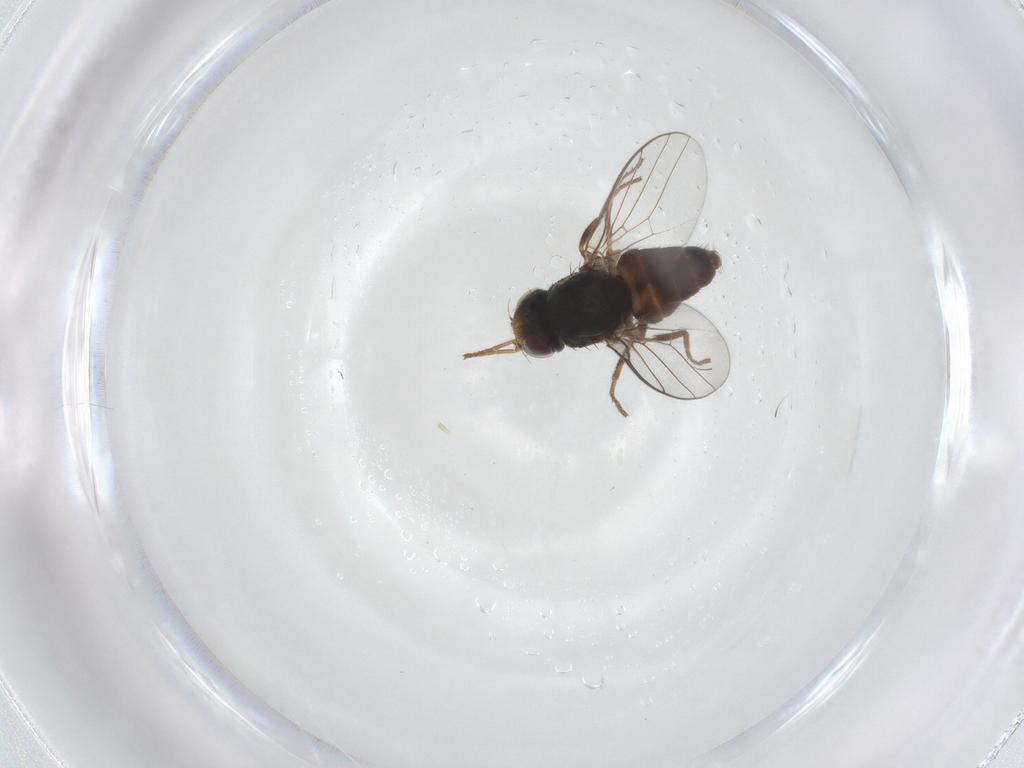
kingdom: Animalia
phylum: Arthropoda
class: Insecta
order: Diptera
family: Chloropidae
